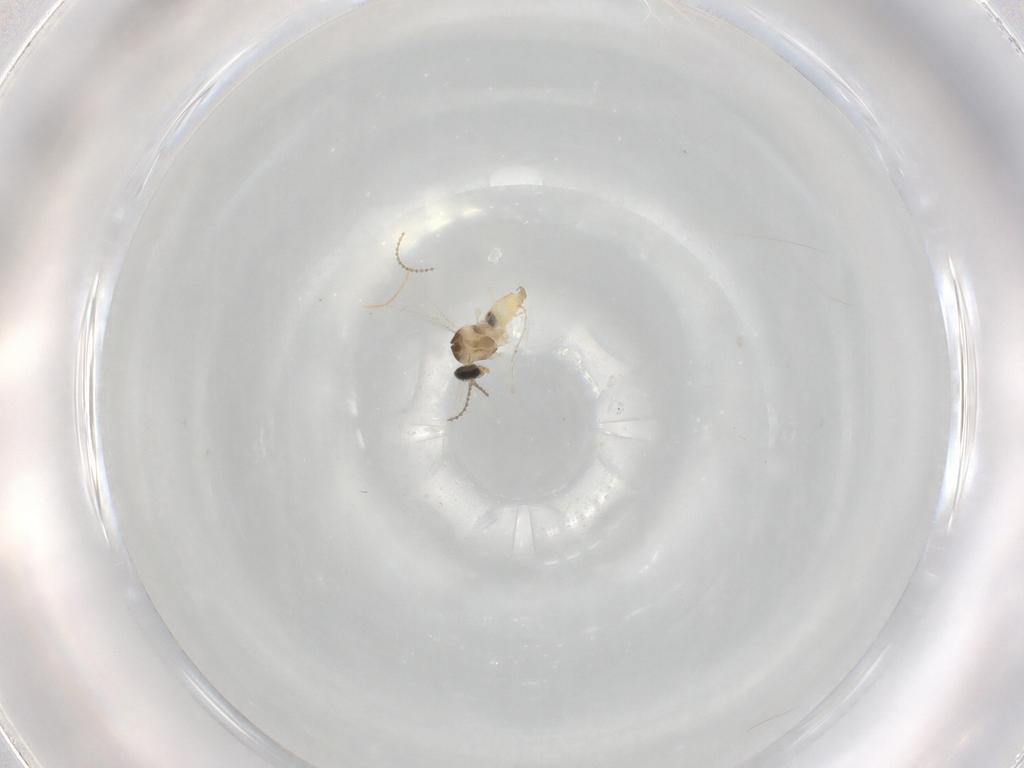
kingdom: Animalia
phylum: Arthropoda
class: Insecta
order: Diptera
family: Cecidomyiidae
